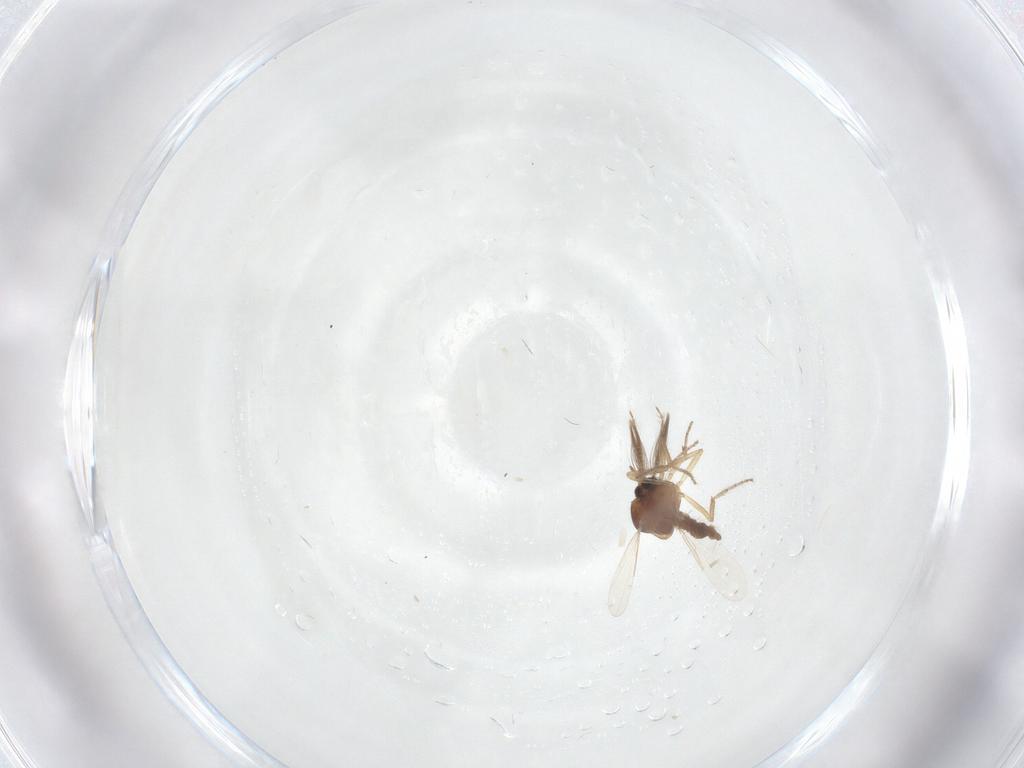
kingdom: Animalia
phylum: Arthropoda
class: Insecta
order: Diptera
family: Ceratopogonidae
